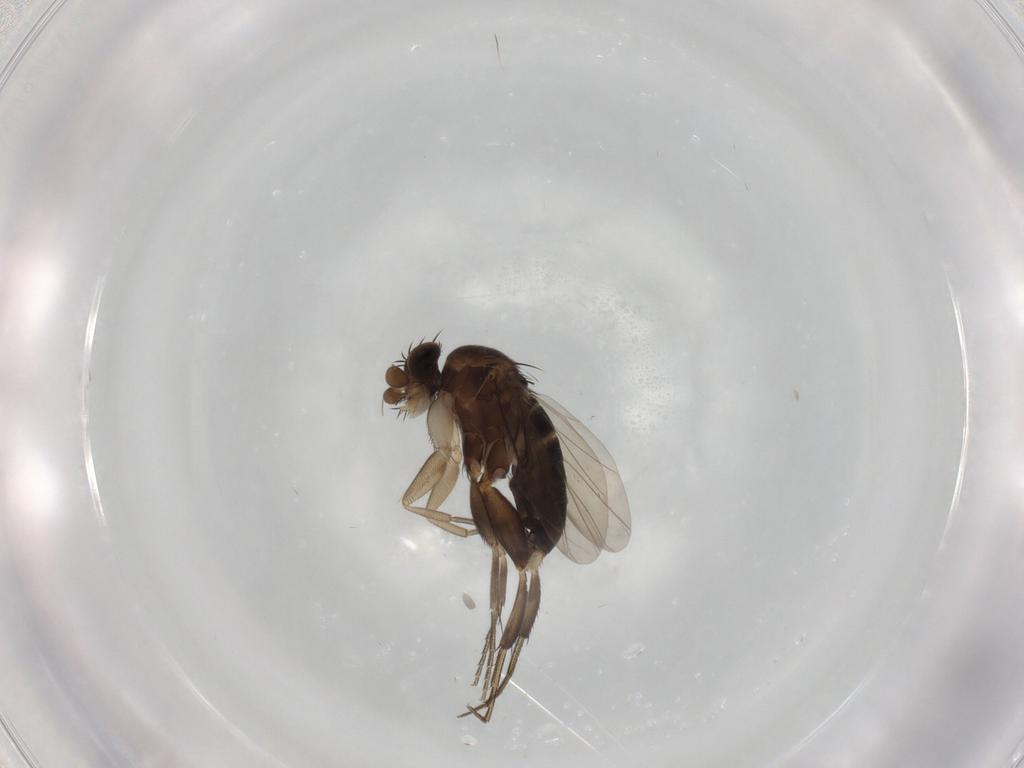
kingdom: Animalia
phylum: Arthropoda
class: Insecta
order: Diptera
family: Phoridae
